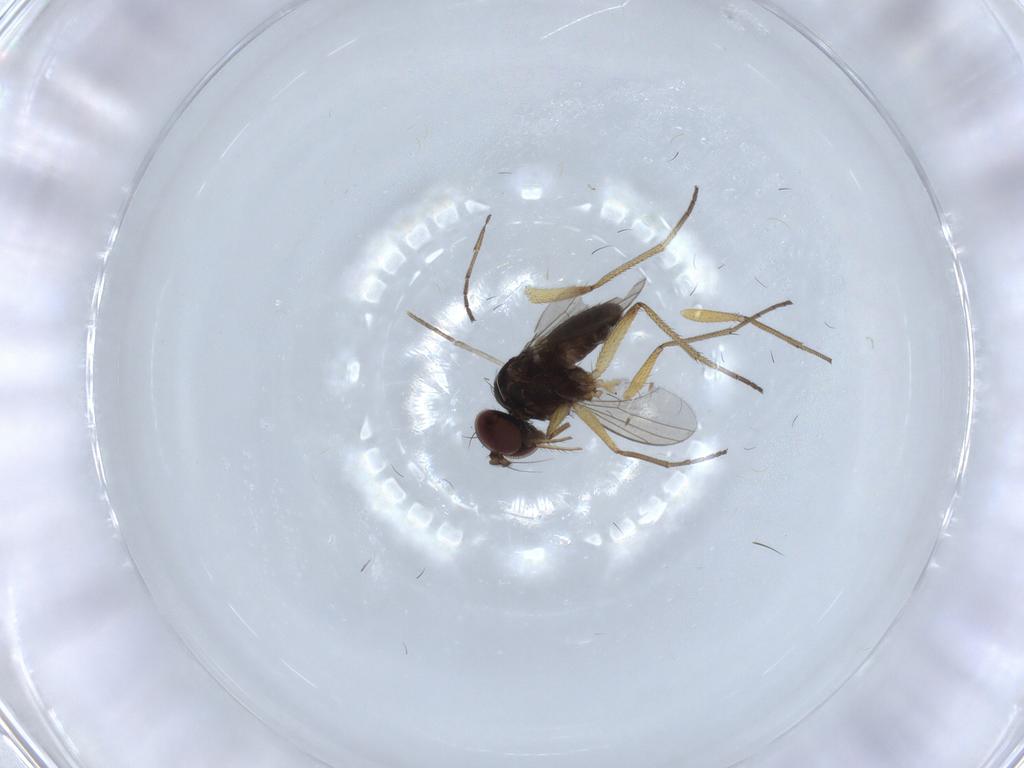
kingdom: Animalia
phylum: Arthropoda
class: Insecta
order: Diptera
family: Dolichopodidae
